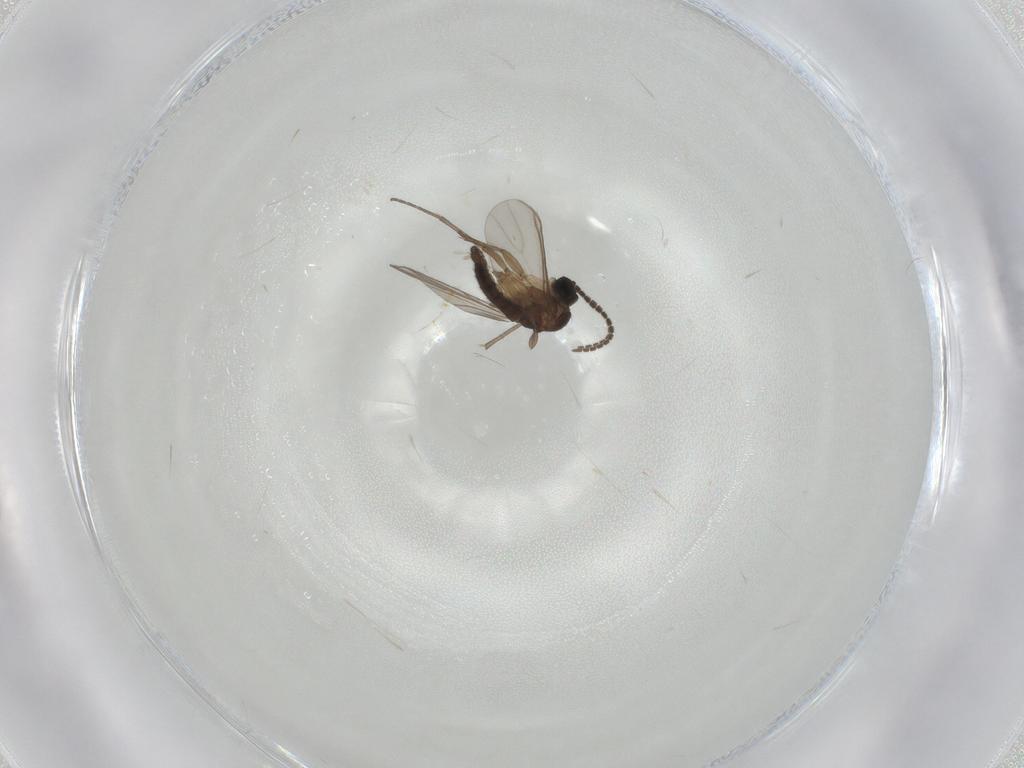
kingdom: Animalia
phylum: Arthropoda
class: Insecta
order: Diptera
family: Sciaridae
